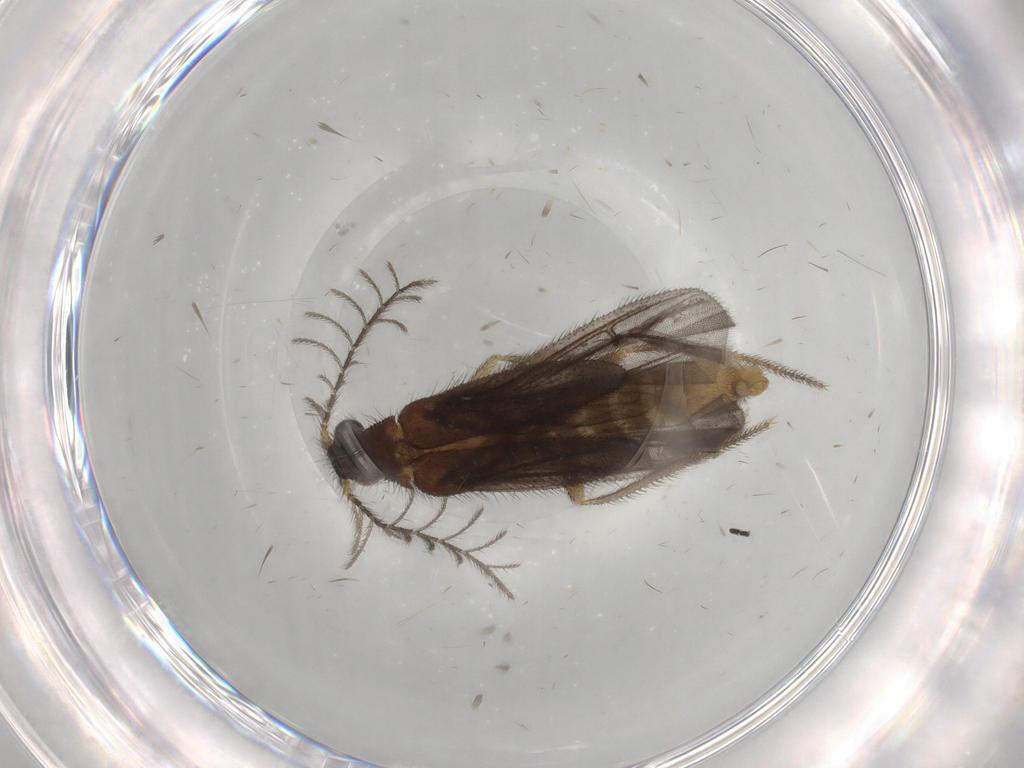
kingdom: Animalia
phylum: Arthropoda
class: Insecta
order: Coleoptera
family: Phengodidae
